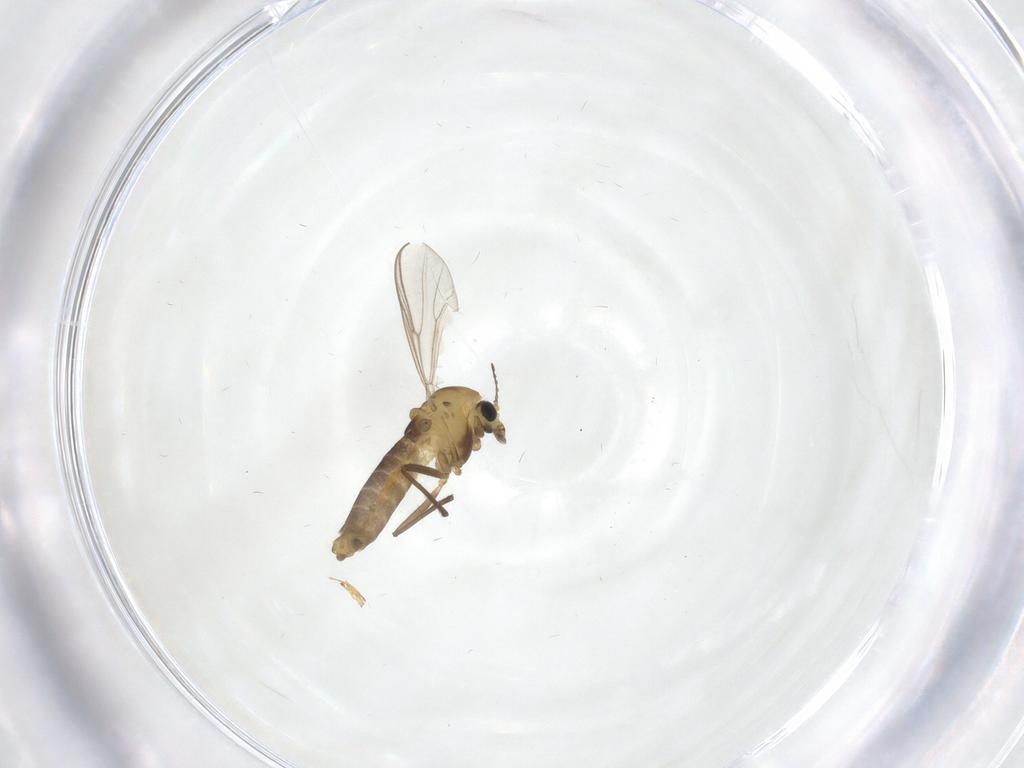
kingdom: Animalia
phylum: Arthropoda
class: Insecta
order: Diptera
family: Chironomidae
